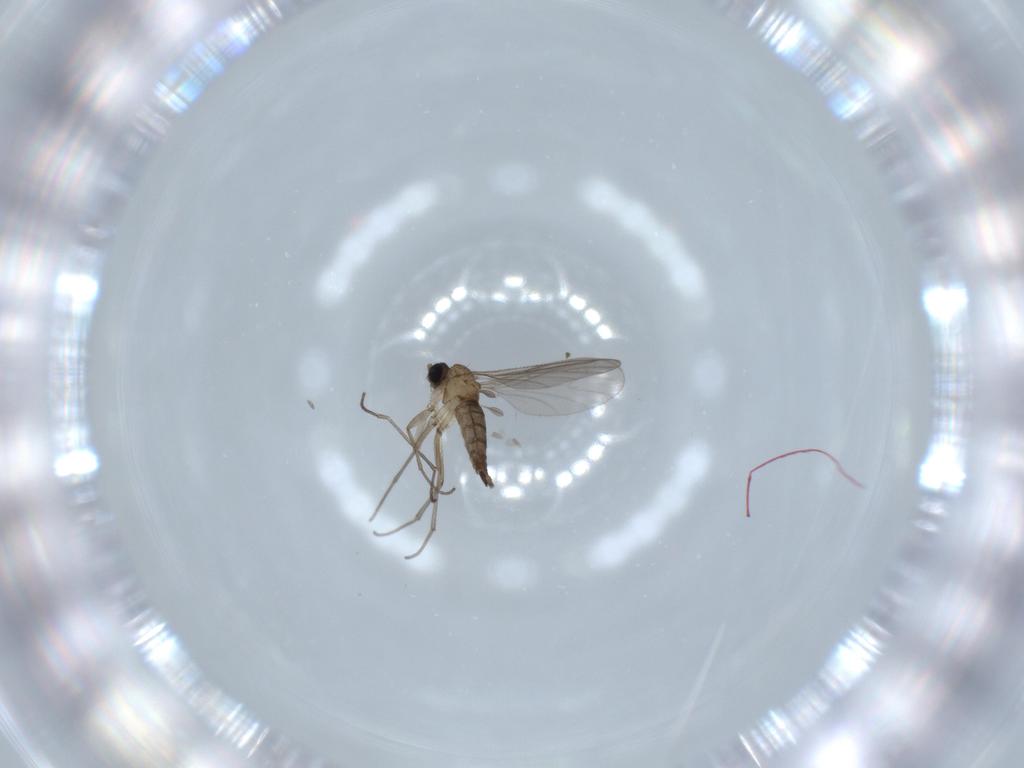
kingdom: Animalia
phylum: Arthropoda
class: Insecta
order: Diptera
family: Sciaridae
